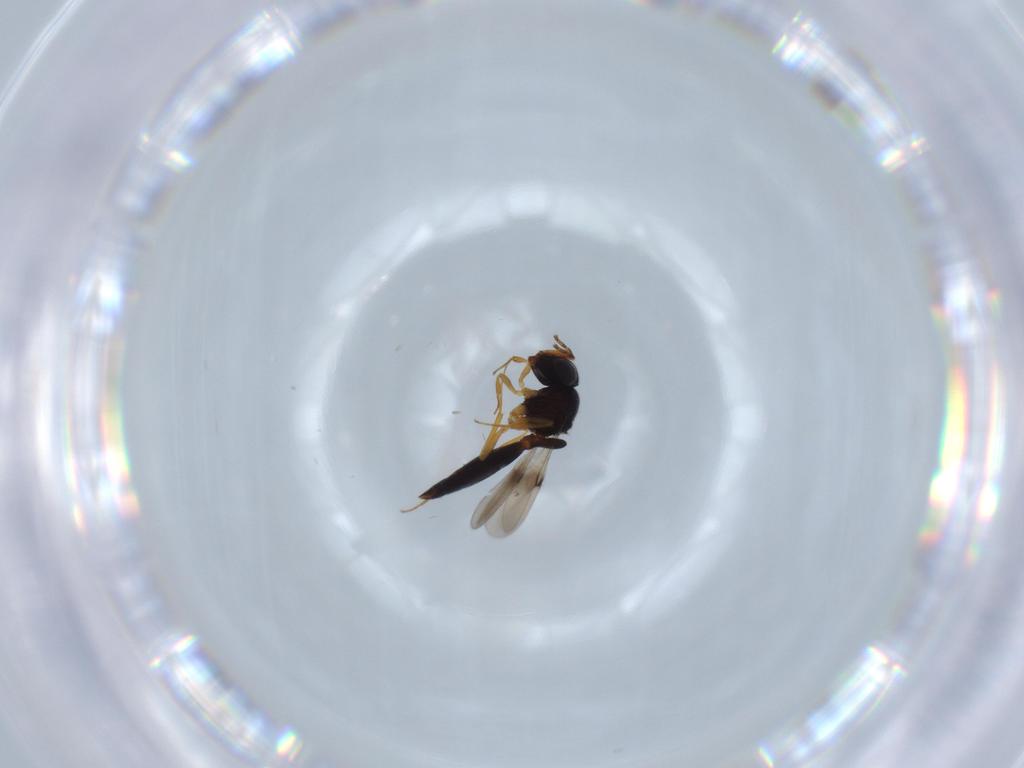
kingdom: Animalia
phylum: Arthropoda
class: Insecta
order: Hymenoptera
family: Scelionidae
